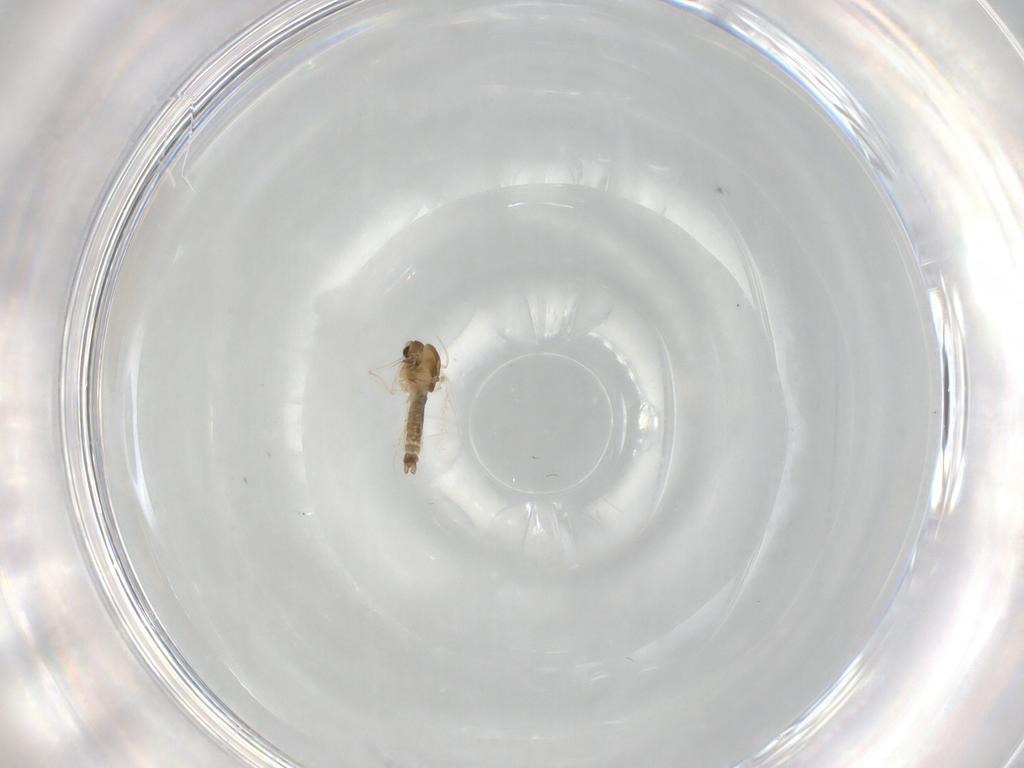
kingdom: Animalia
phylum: Arthropoda
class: Insecta
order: Diptera
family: Chironomidae
